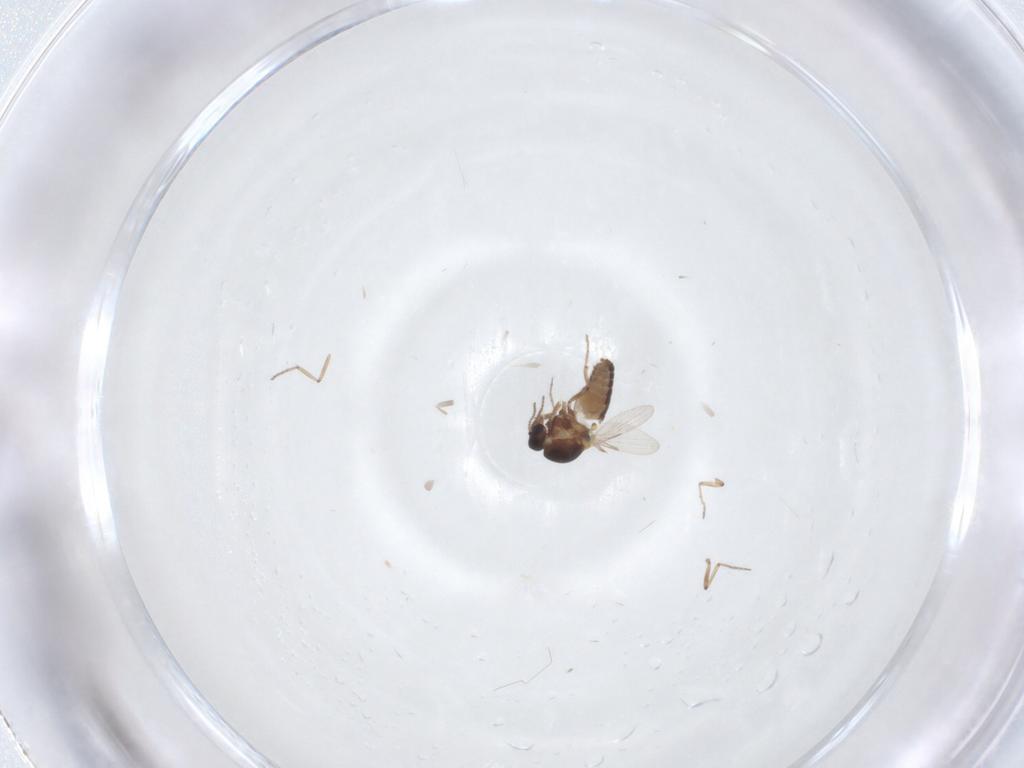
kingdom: Animalia
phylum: Arthropoda
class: Insecta
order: Diptera
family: Ceratopogonidae
